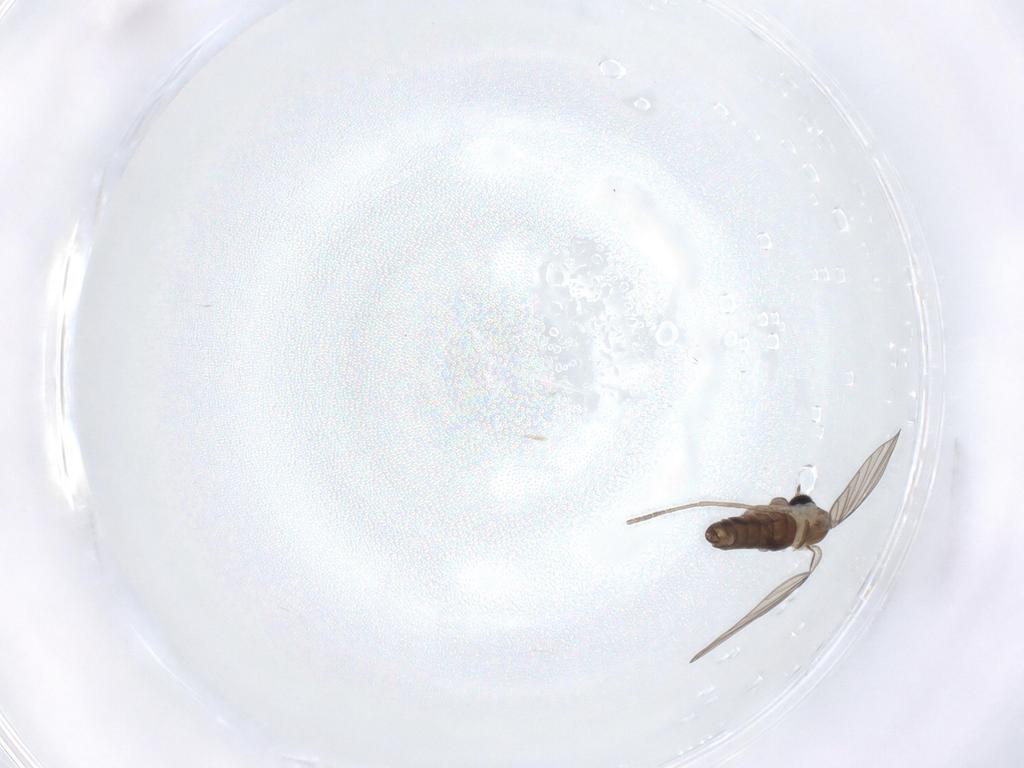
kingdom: Animalia
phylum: Arthropoda
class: Insecta
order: Diptera
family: Psychodidae
